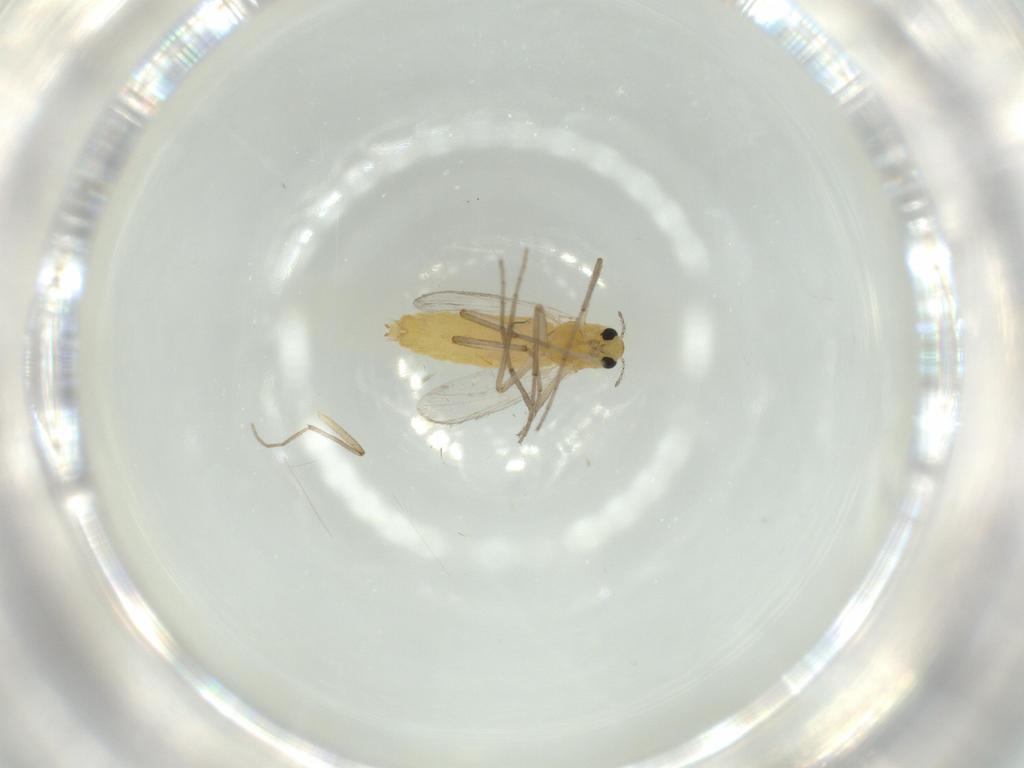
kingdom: Animalia
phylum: Arthropoda
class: Insecta
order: Diptera
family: Chironomidae
